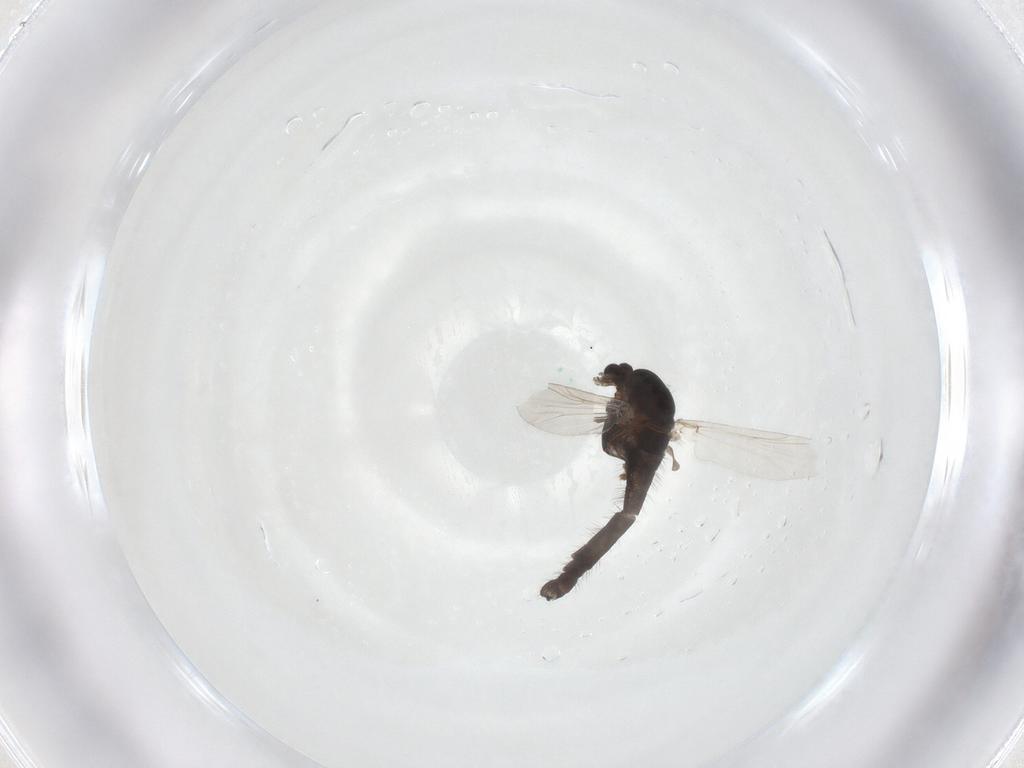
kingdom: Animalia
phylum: Arthropoda
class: Insecta
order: Diptera
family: Chironomidae
